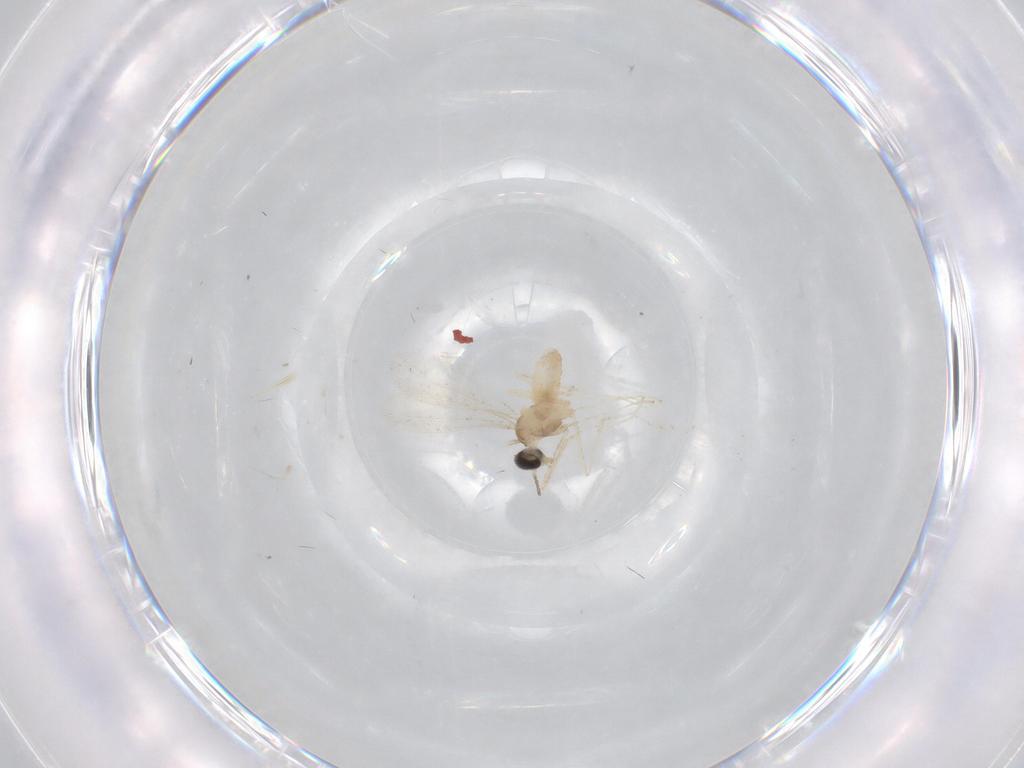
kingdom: Animalia
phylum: Arthropoda
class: Insecta
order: Diptera
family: Cecidomyiidae
